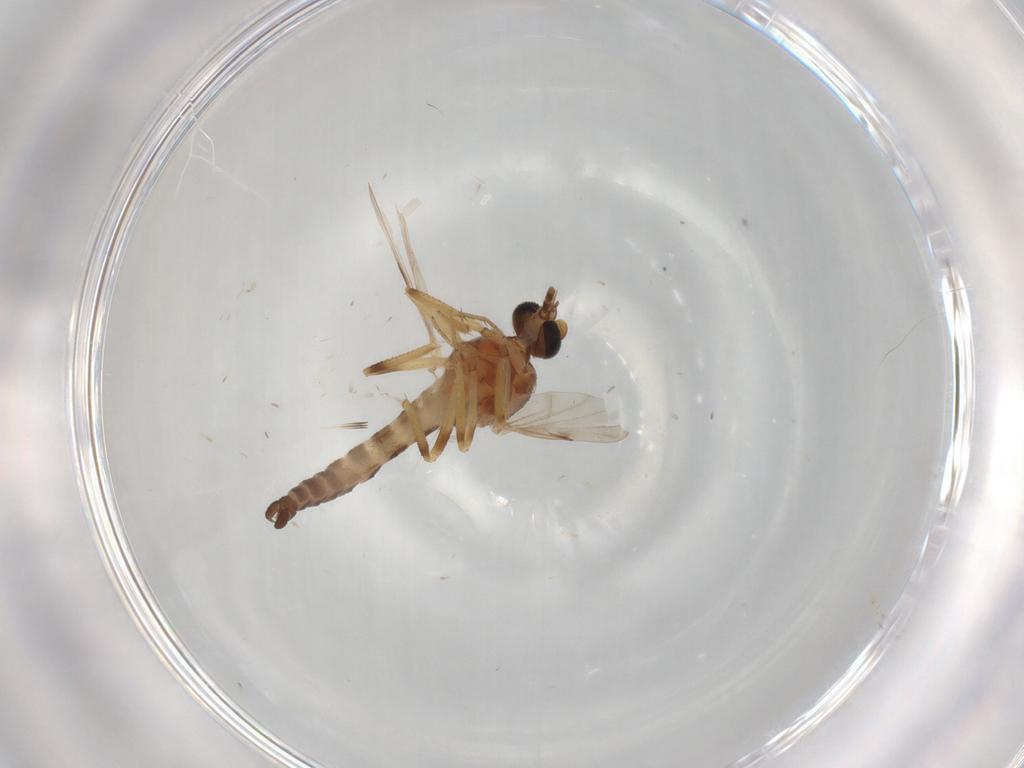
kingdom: Animalia
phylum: Arthropoda
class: Insecta
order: Diptera
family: Ceratopogonidae
